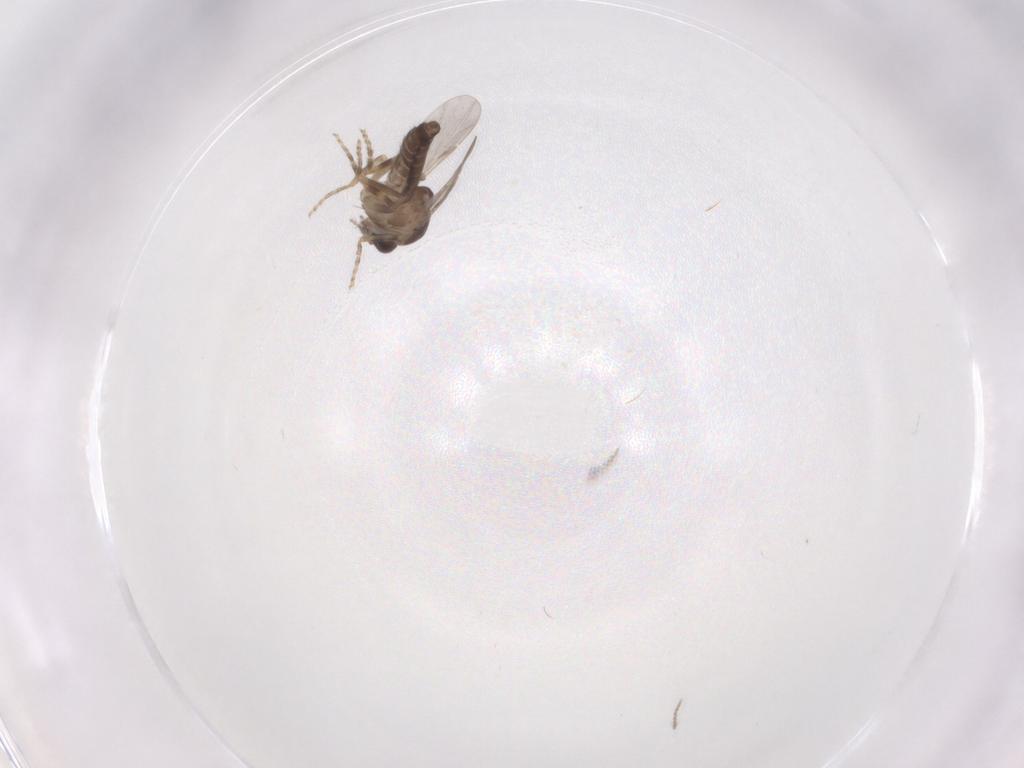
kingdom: Animalia
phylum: Arthropoda
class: Insecta
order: Diptera
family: Ceratopogonidae
